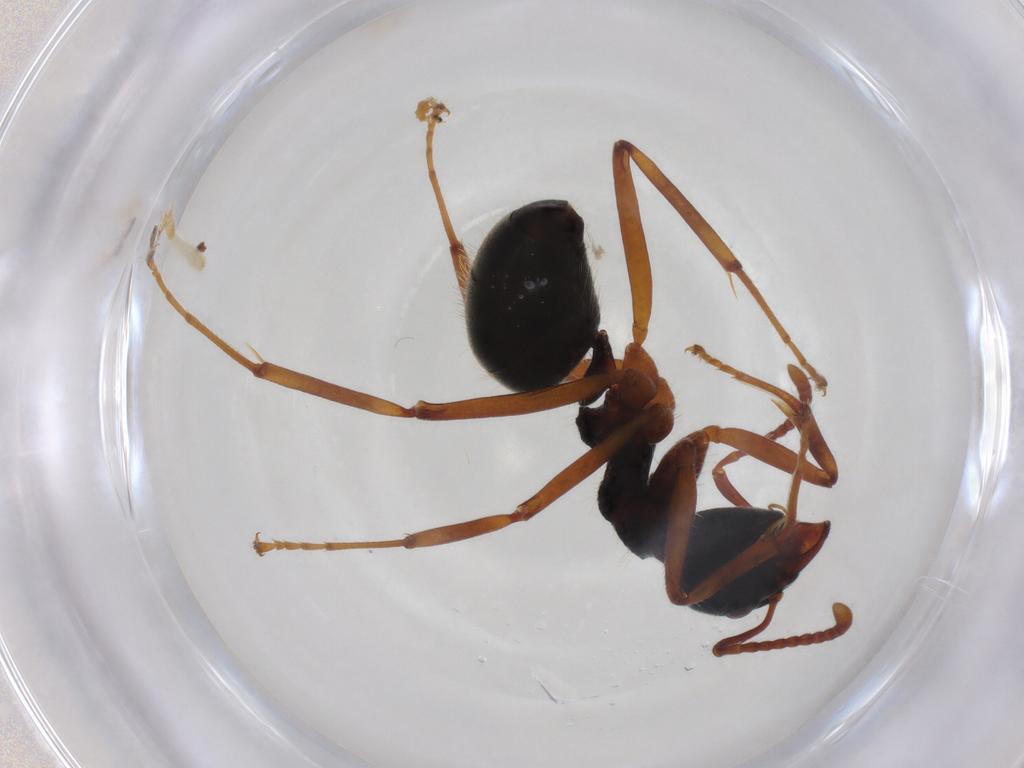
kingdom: Animalia
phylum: Arthropoda
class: Insecta
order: Hymenoptera
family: Formicidae
